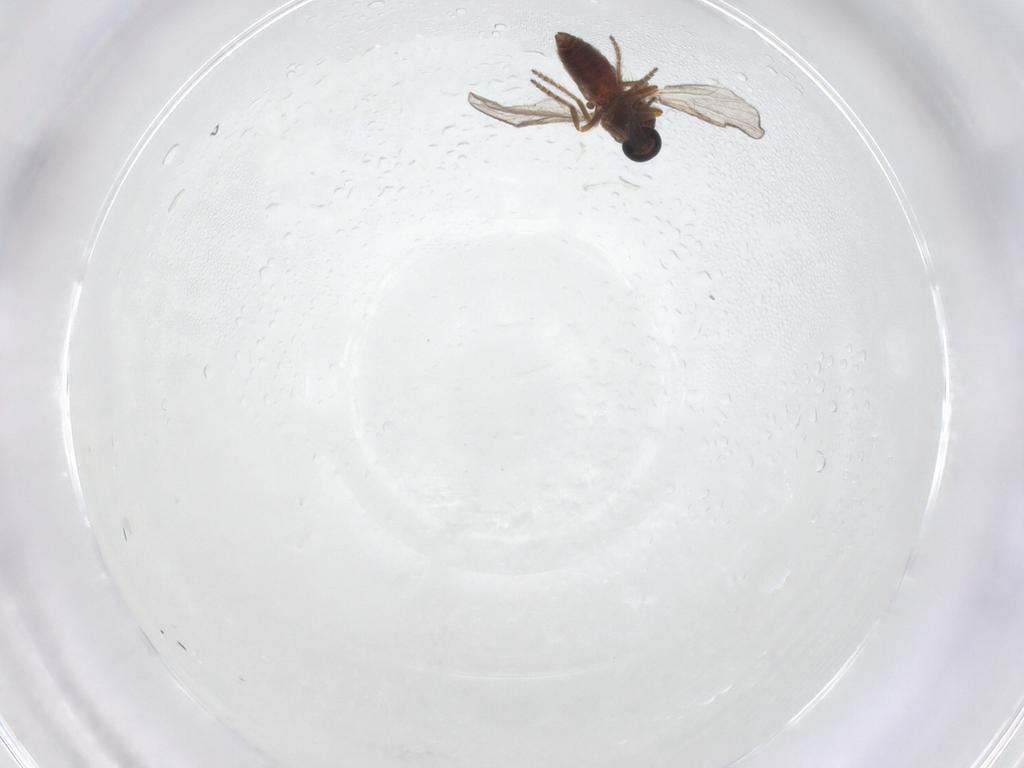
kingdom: Animalia
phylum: Arthropoda
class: Insecta
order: Diptera
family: Ceratopogonidae
